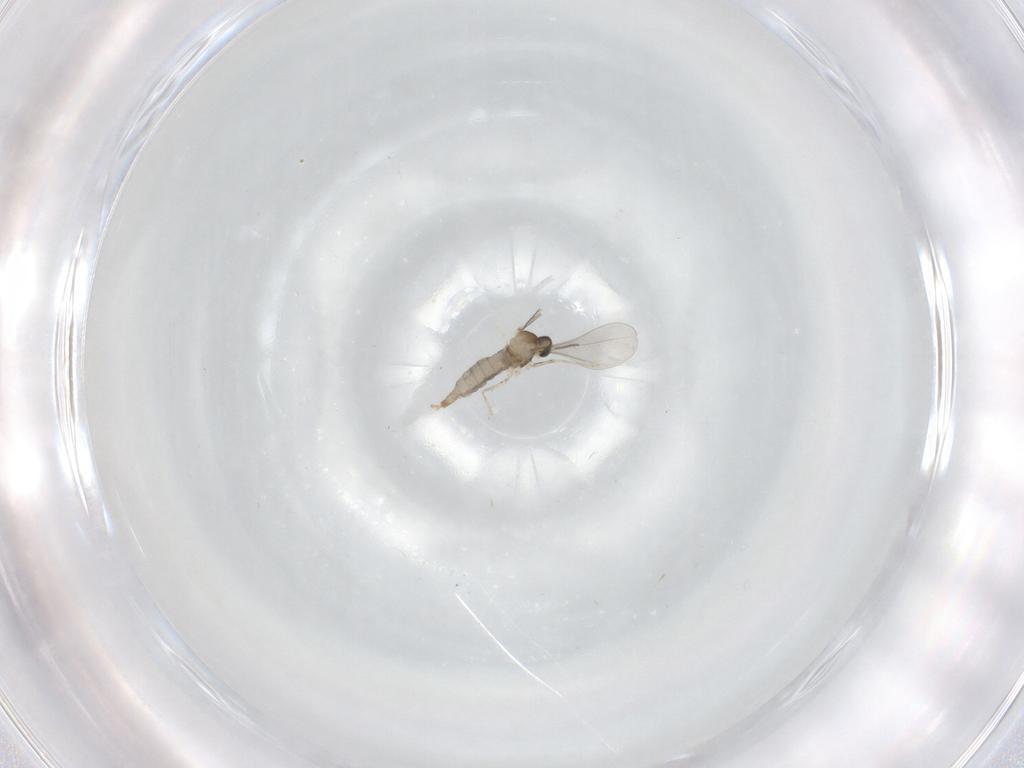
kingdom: Animalia
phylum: Arthropoda
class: Insecta
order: Diptera
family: Cecidomyiidae
